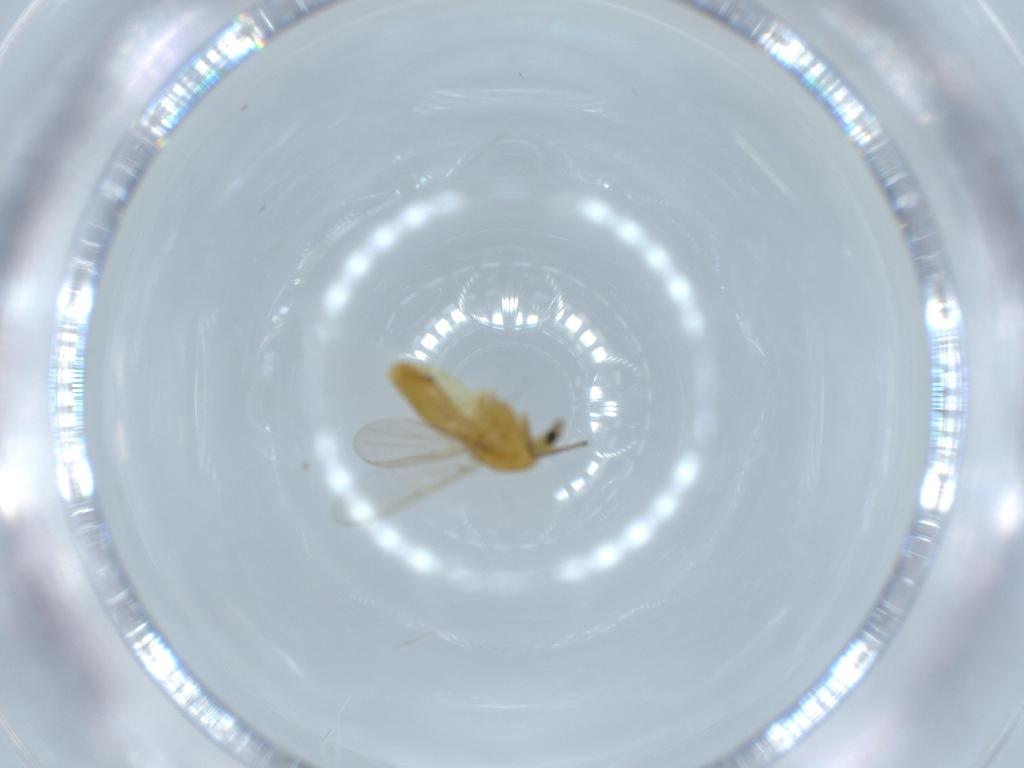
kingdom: Animalia
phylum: Arthropoda
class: Insecta
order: Diptera
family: Chironomidae
